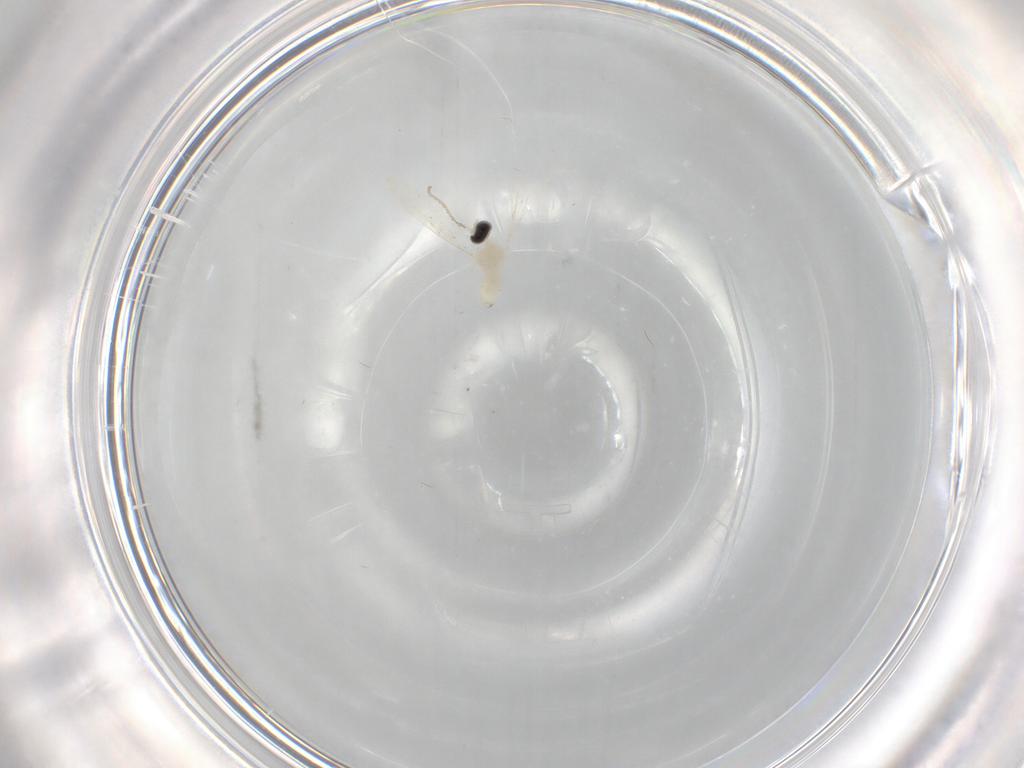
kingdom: Animalia
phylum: Arthropoda
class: Insecta
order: Diptera
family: Cecidomyiidae
